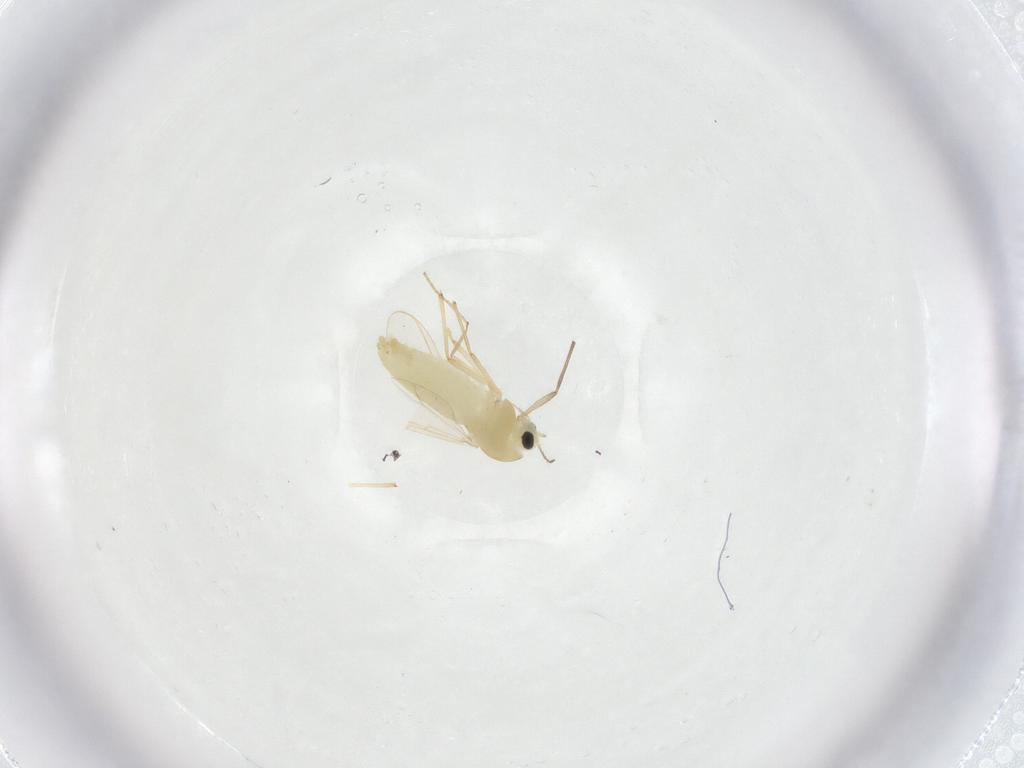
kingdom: Animalia
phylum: Arthropoda
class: Insecta
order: Diptera
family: Chironomidae
